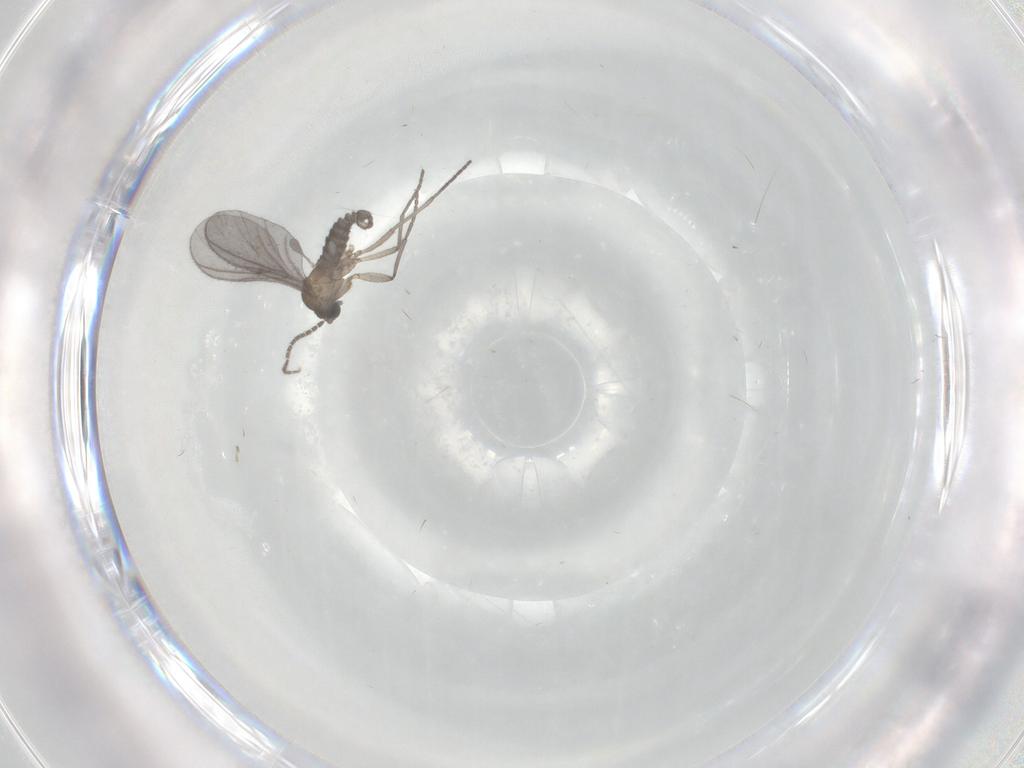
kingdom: Animalia
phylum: Arthropoda
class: Insecta
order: Diptera
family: Sciaridae
